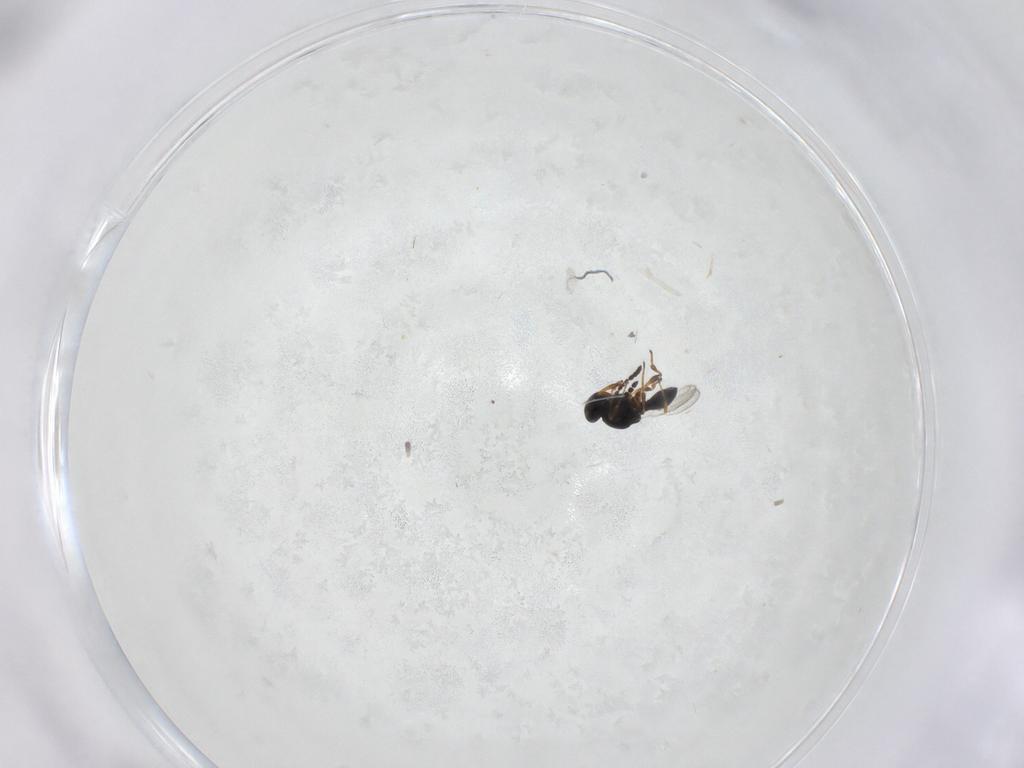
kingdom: Animalia
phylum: Arthropoda
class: Insecta
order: Hymenoptera
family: Platygastridae
